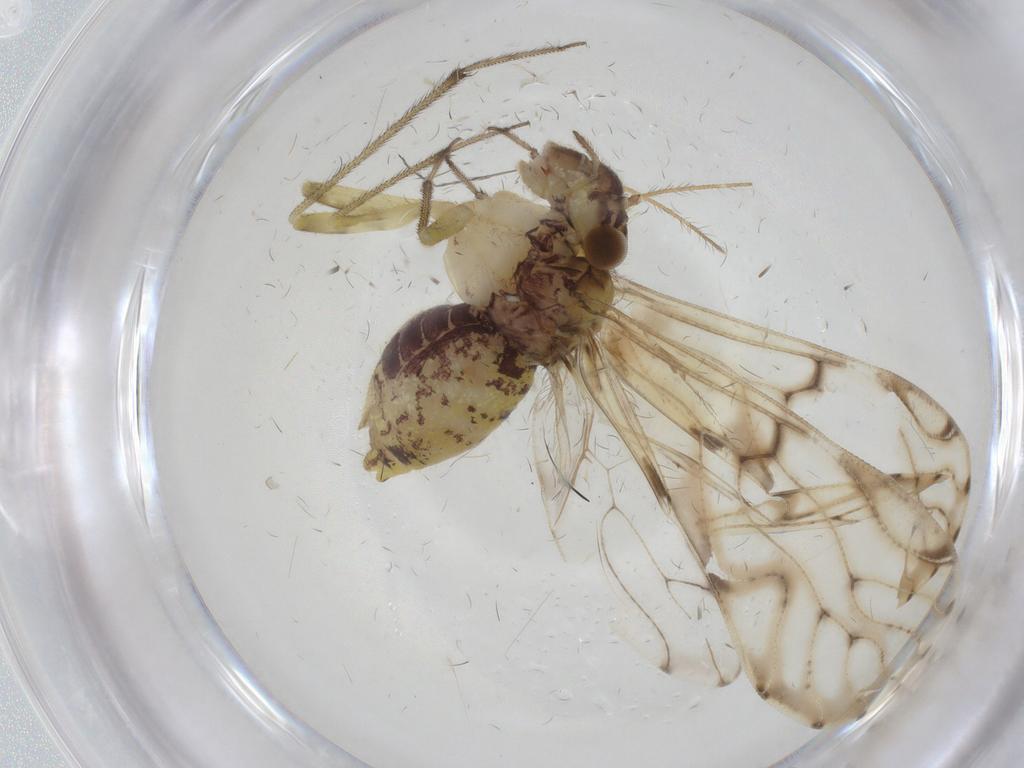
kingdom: Animalia
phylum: Arthropoda
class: Insecta
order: Psocodea
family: Ptiloneuridae
